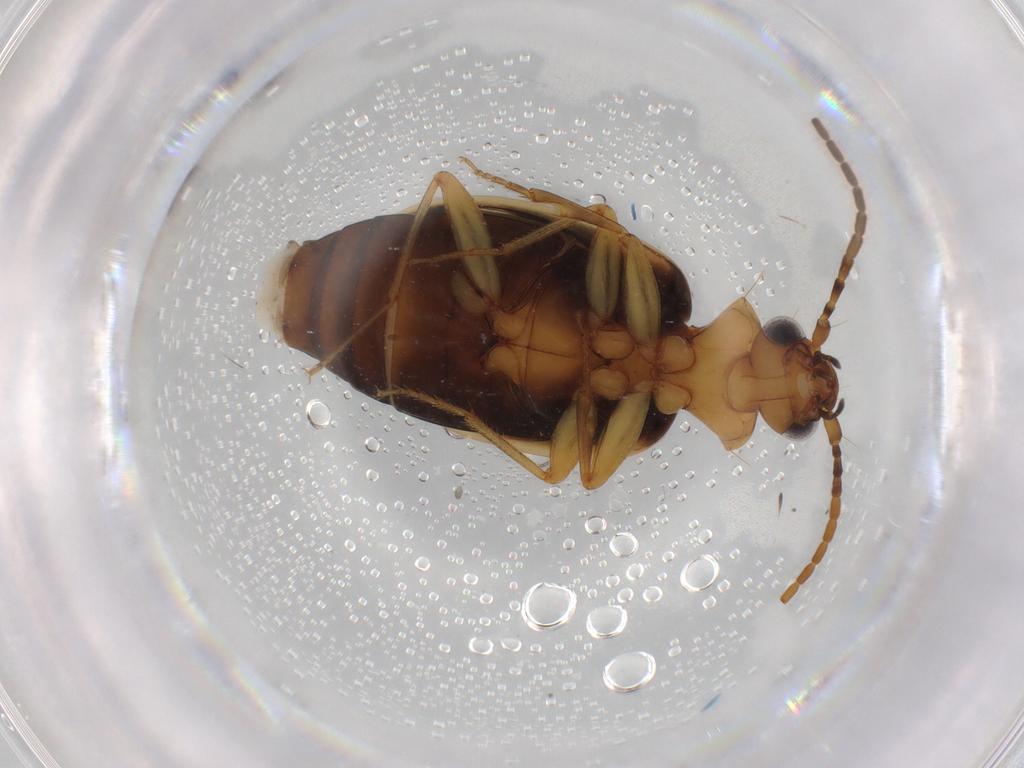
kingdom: Animalia
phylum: Arthropoda
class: Insecta
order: Coleoptera
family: Carabidae
